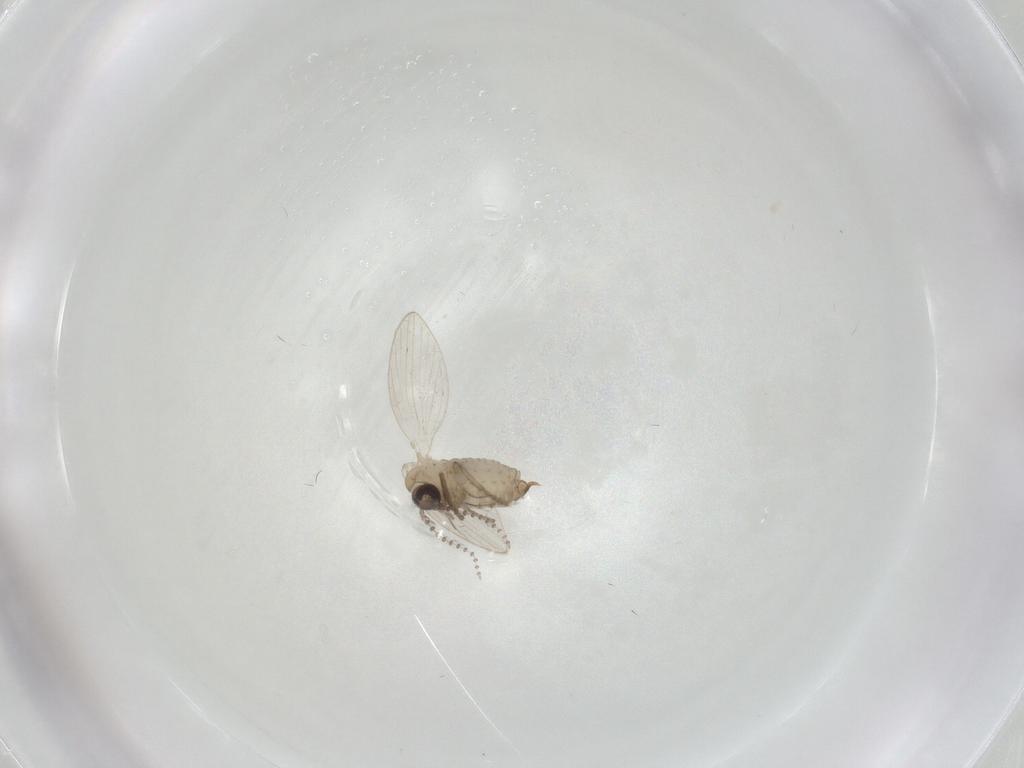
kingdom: Animalia
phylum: Arthropoda
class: Insecta
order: Diptera
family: Psychodidae
